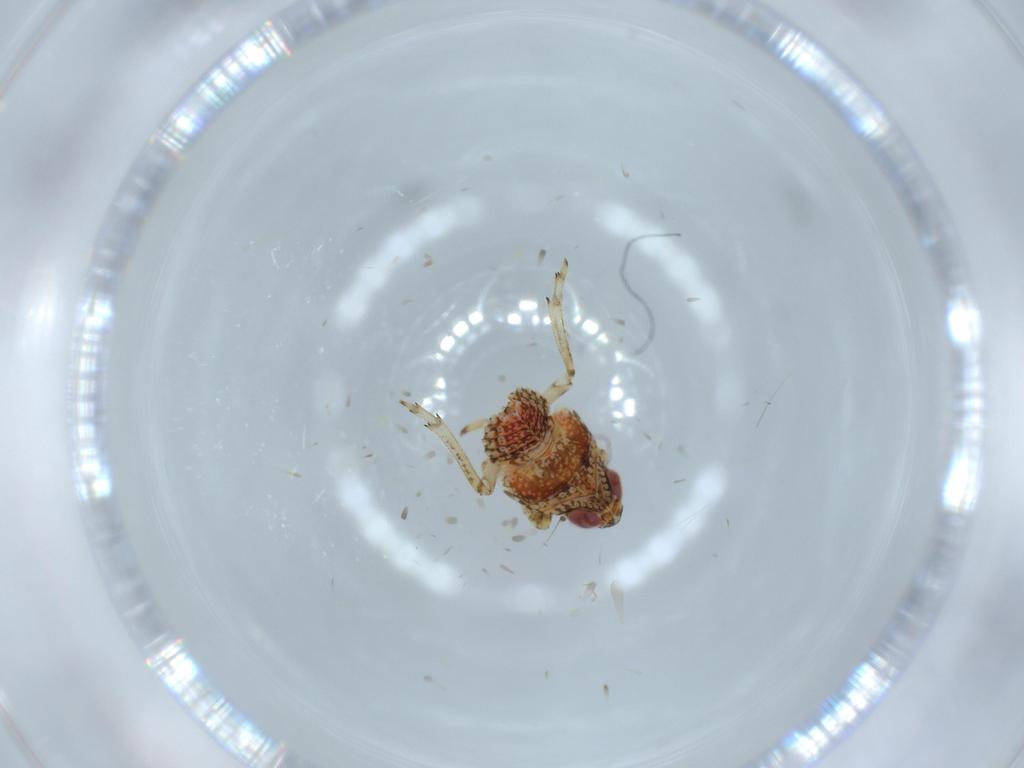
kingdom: Animalia
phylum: Arthropoda
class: Insecta
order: Hemiptera
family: Issidae
